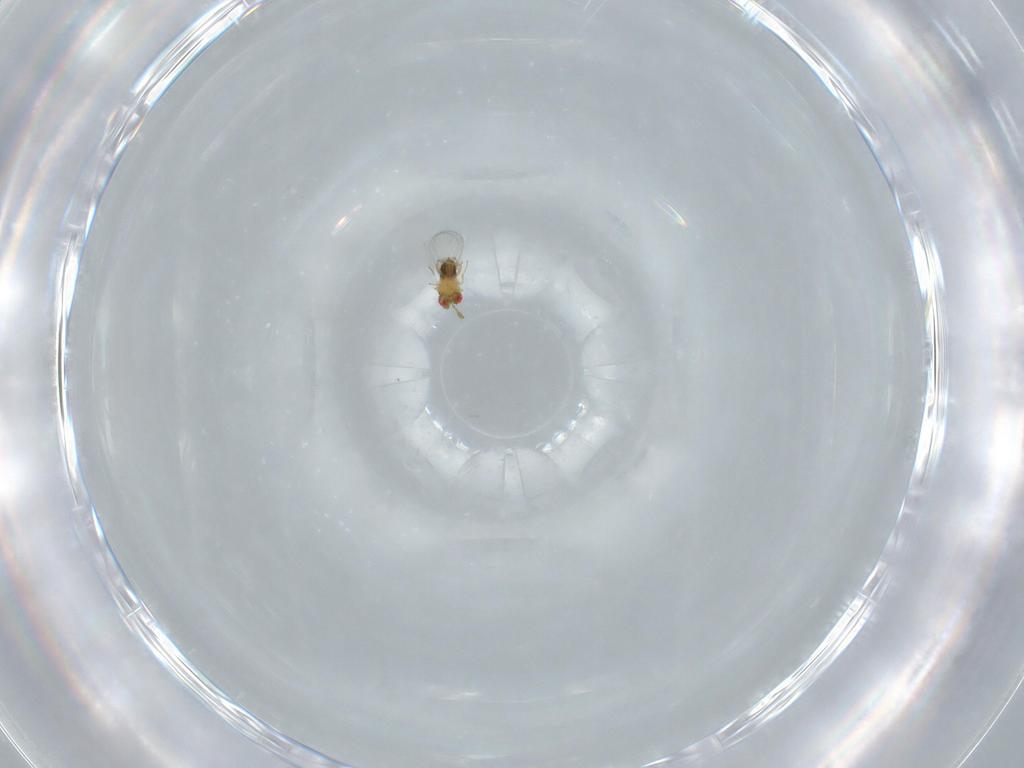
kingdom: Animalia
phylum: Arthropoda
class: Insecta
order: Hymenoptera
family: Trichogrammatidae
